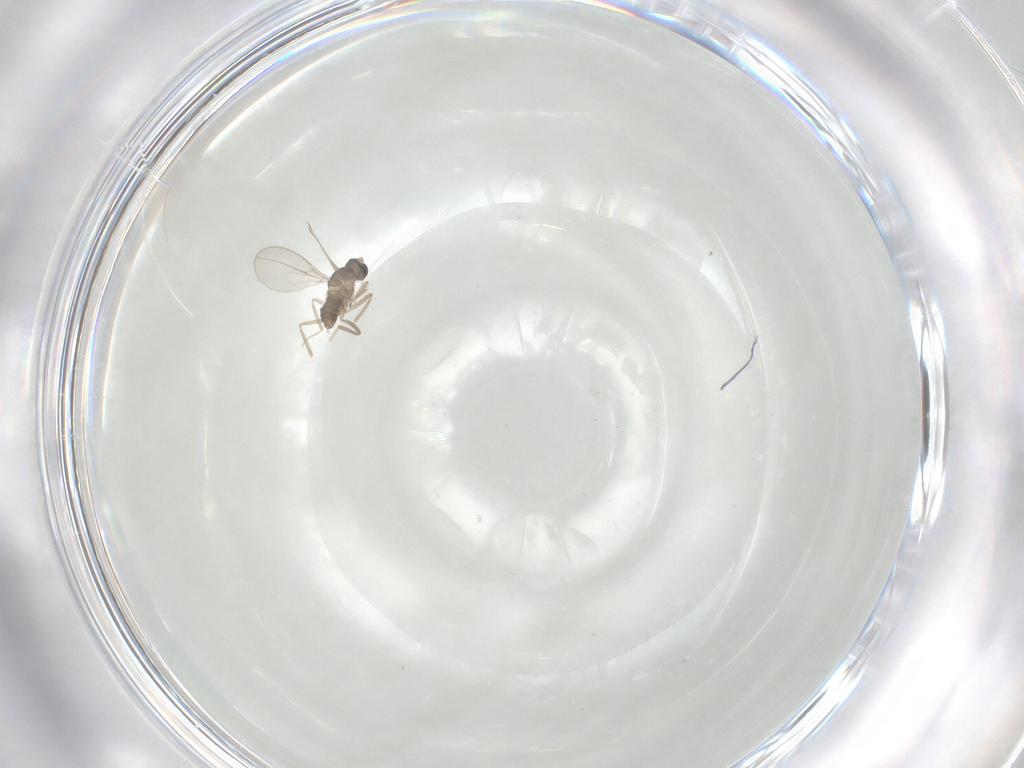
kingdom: Animalia
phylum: Arthropoda
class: Insecta
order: Diptera
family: Cecidomyiidae
